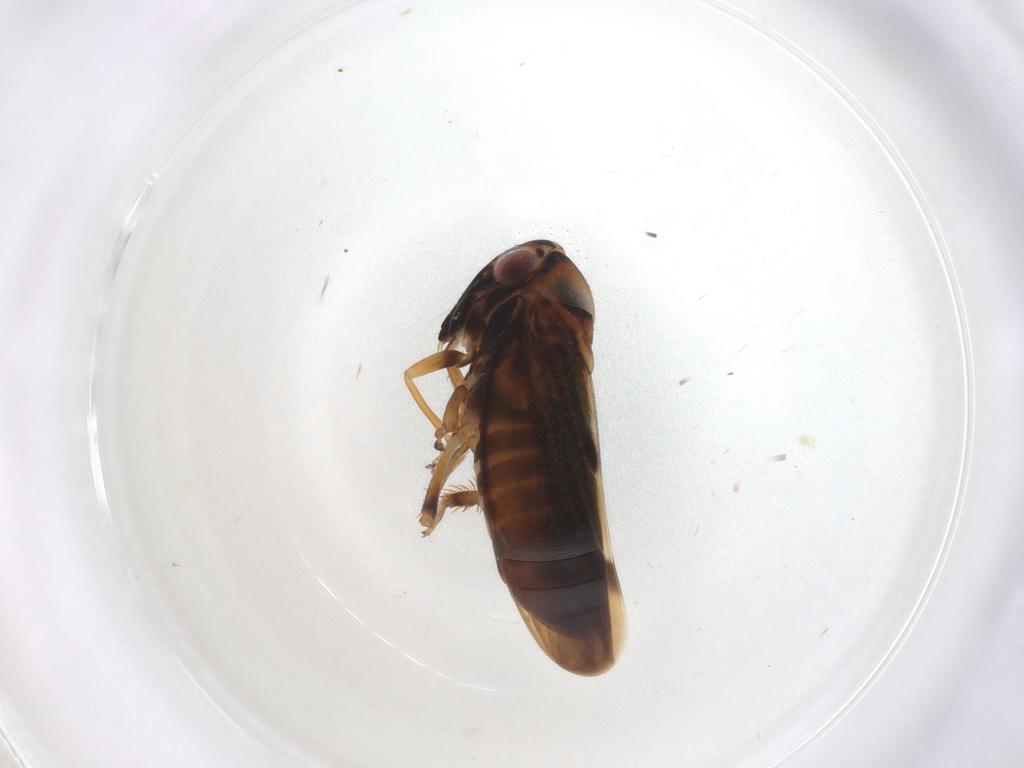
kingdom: Animalia
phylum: Arthropoda
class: Insecta
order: Hemiptera
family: Cicadellidae
